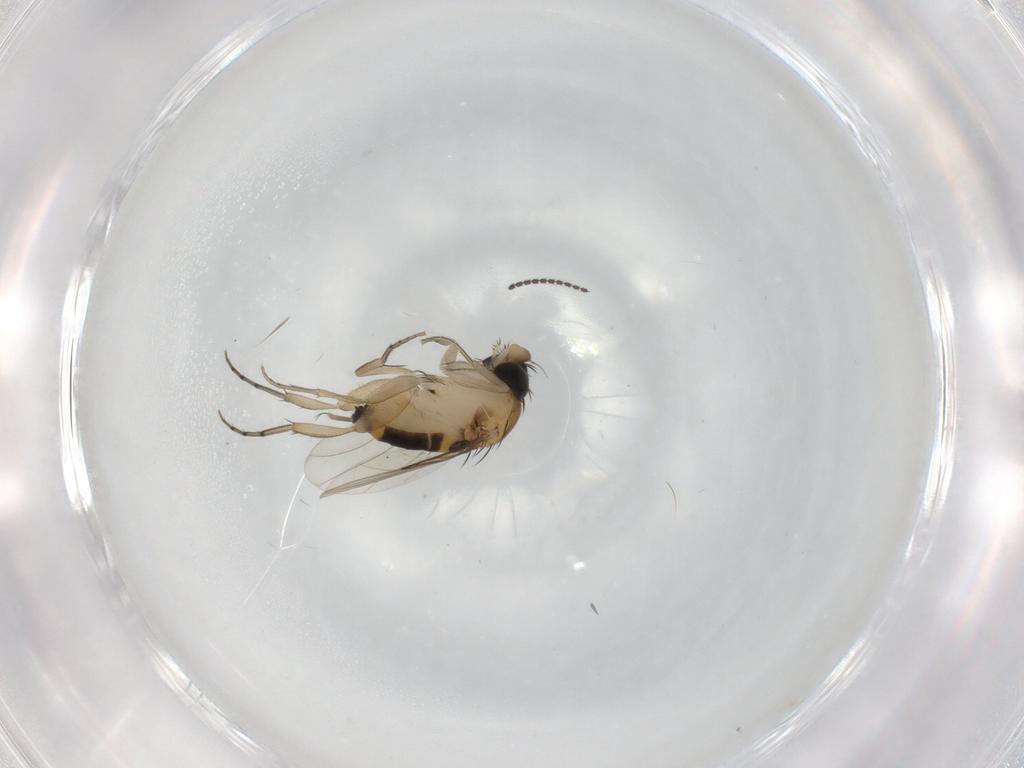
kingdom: Animalia
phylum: Arthropoda
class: Insecta
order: Diptera
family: Phoridae
